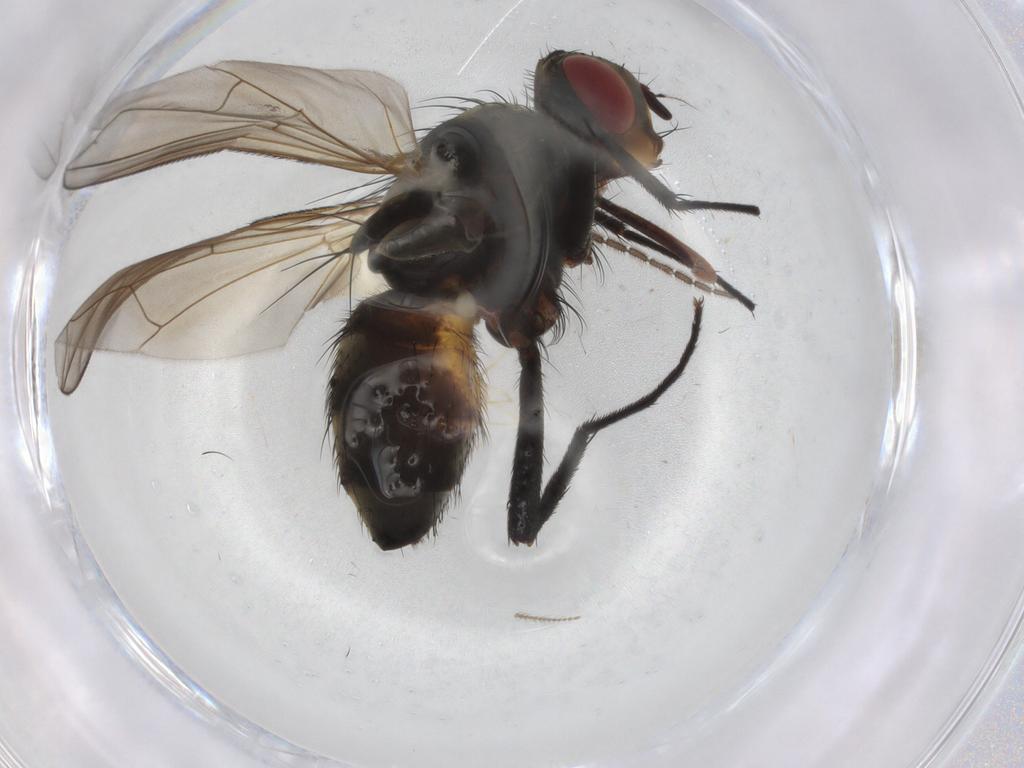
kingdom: Animalia
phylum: Arthropoda
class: Insecta
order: Diptera
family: Tachinidae
